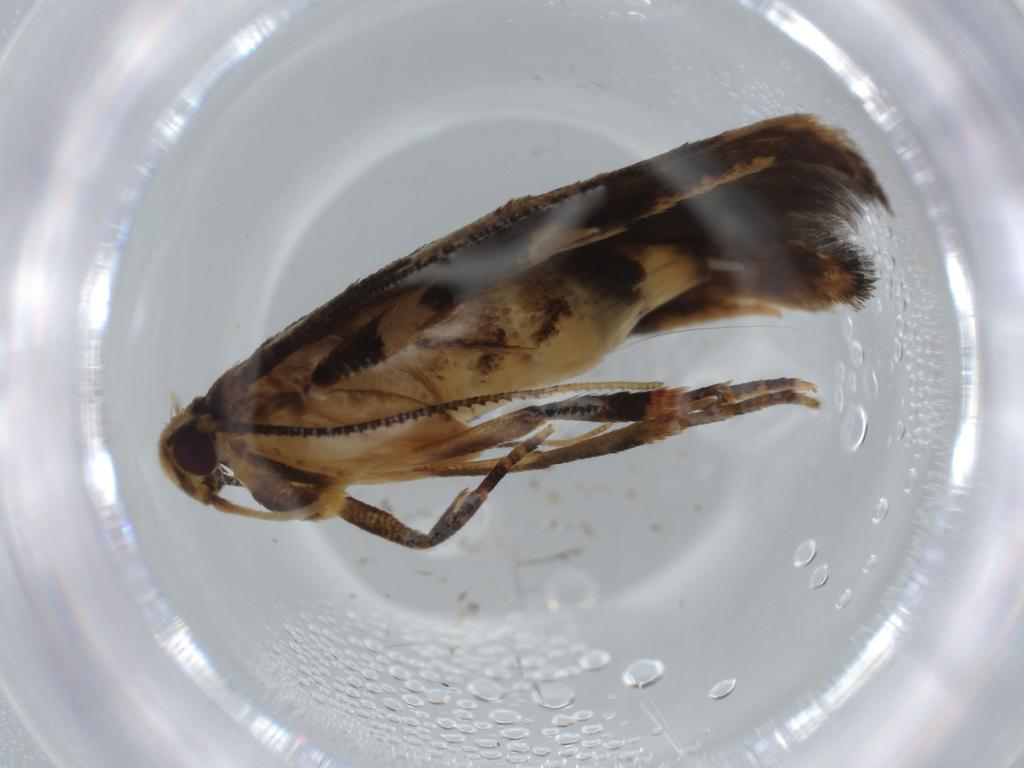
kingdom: Animalia
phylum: Arthropoda
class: Insecta
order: Lepidoptera
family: Cosmopterigidae
